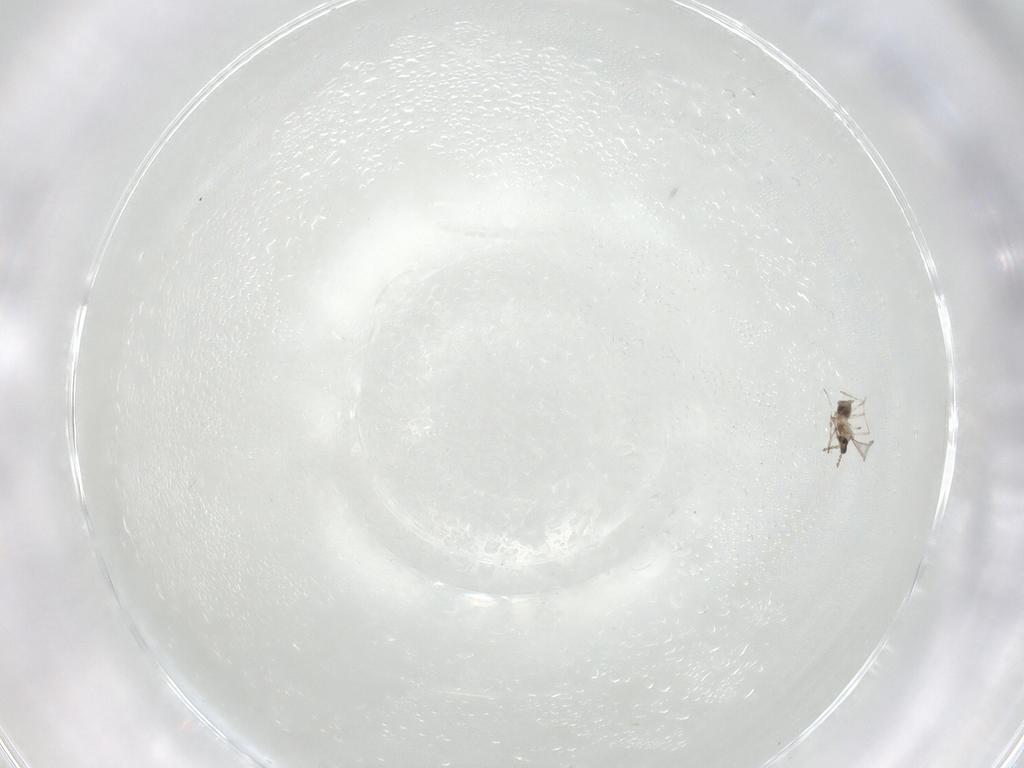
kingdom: Animalia
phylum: Arthropoda
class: Insecta
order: Diptera
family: Cecidomyiidae
